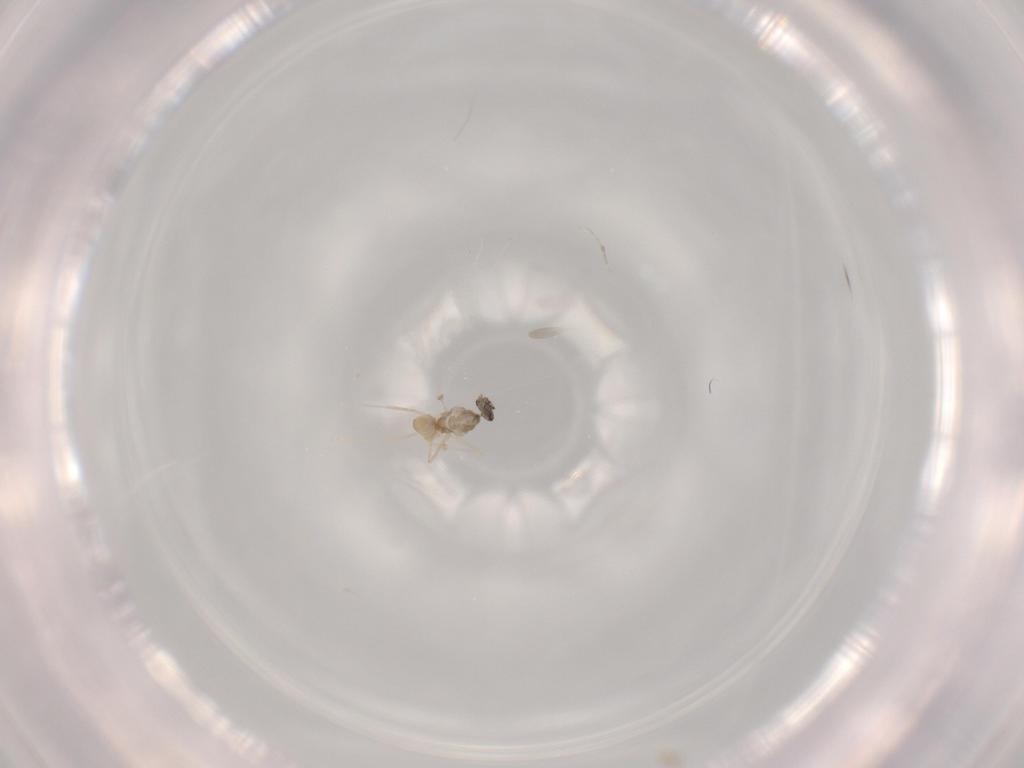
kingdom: Animalia
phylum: Arthropoda
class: Insecta
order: Diptera
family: Cecidomyiidae
